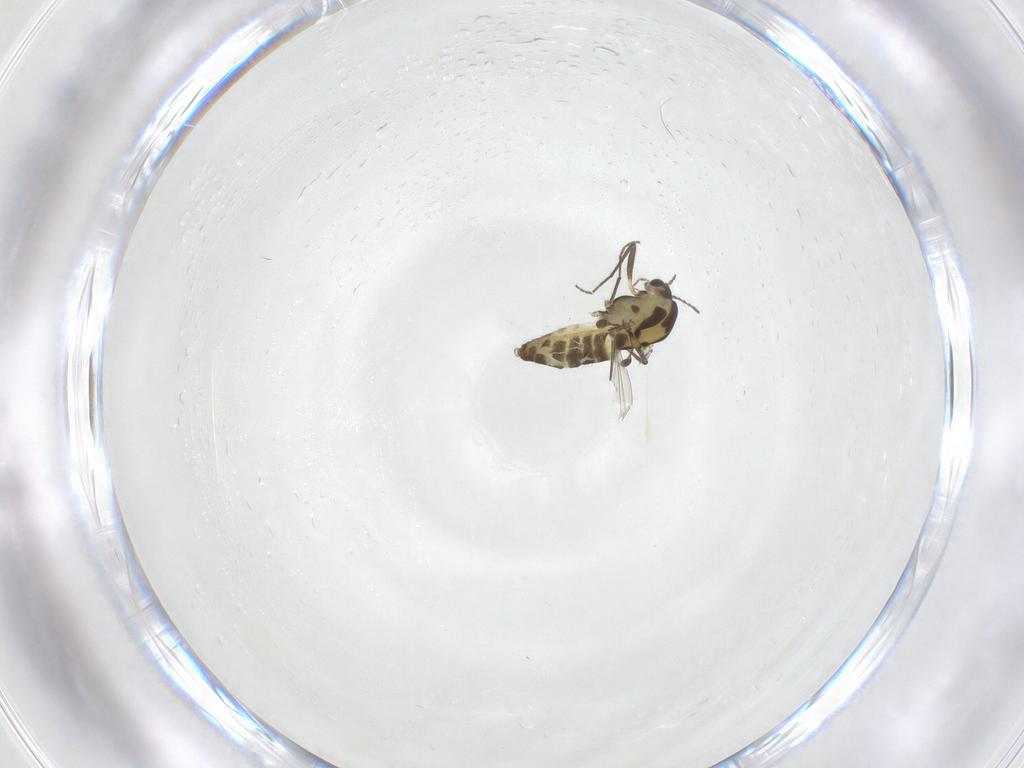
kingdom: Animalia
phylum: Arthropoda
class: Insecta
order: Diptera
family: Chironomidae
